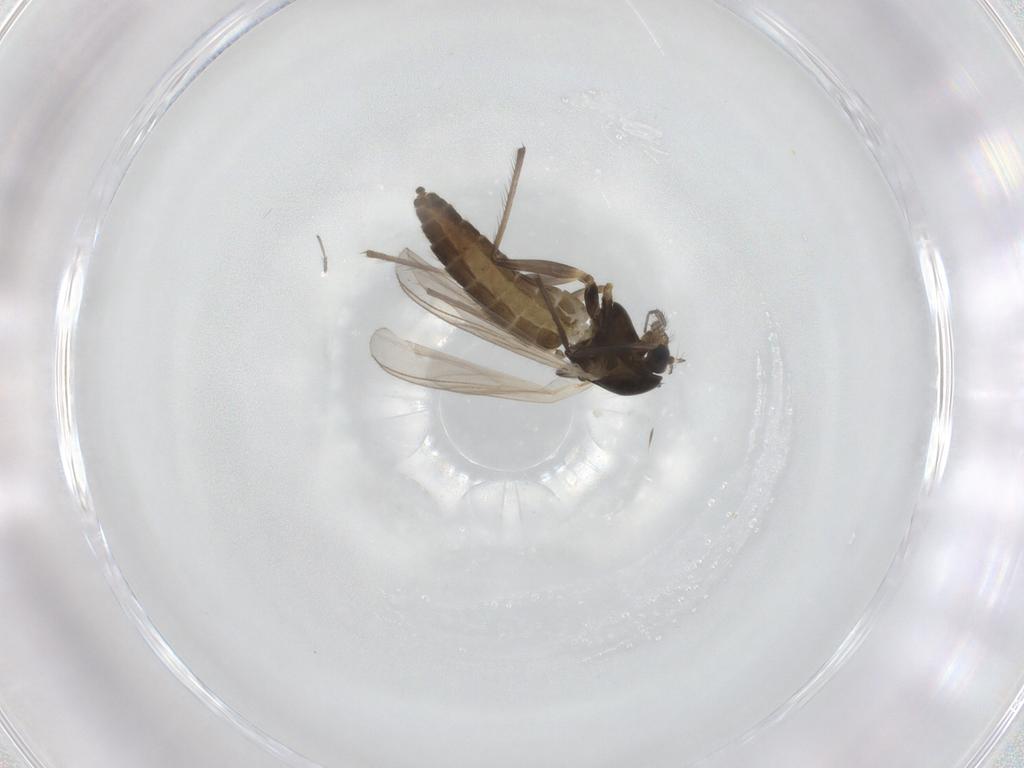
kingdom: Animalia
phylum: Arthropoda
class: Insecta
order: Diptera
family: Chironomidae
